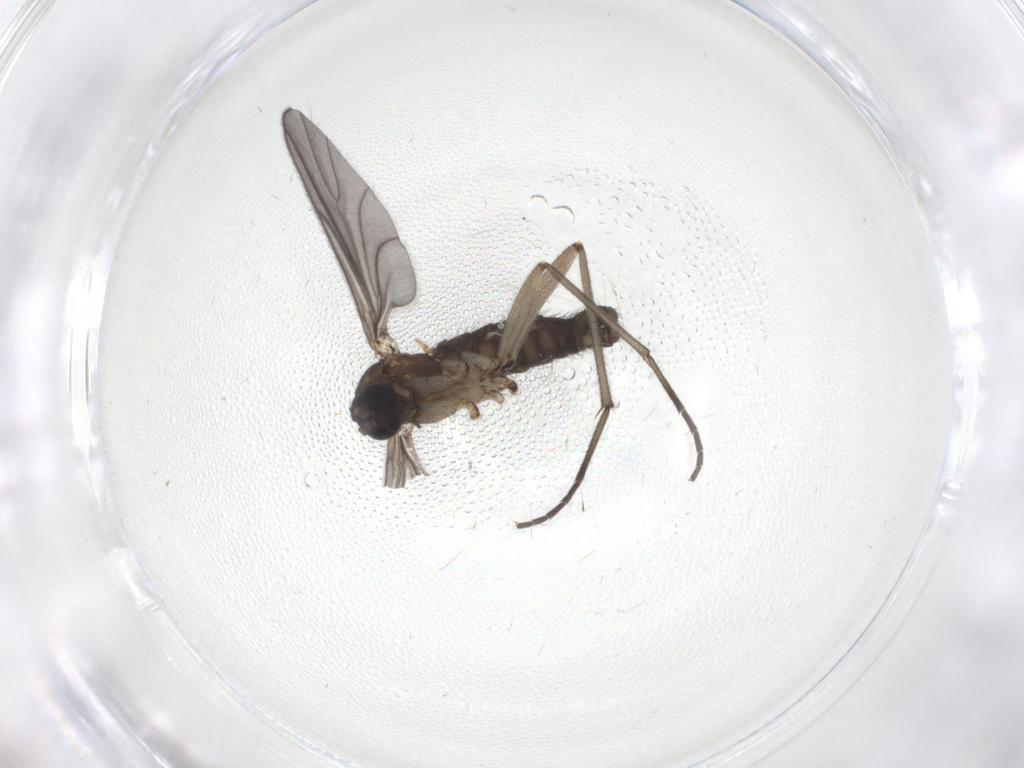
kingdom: Animalia
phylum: Arthropoda
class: Insecta
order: Diptera
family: Sciaridae
